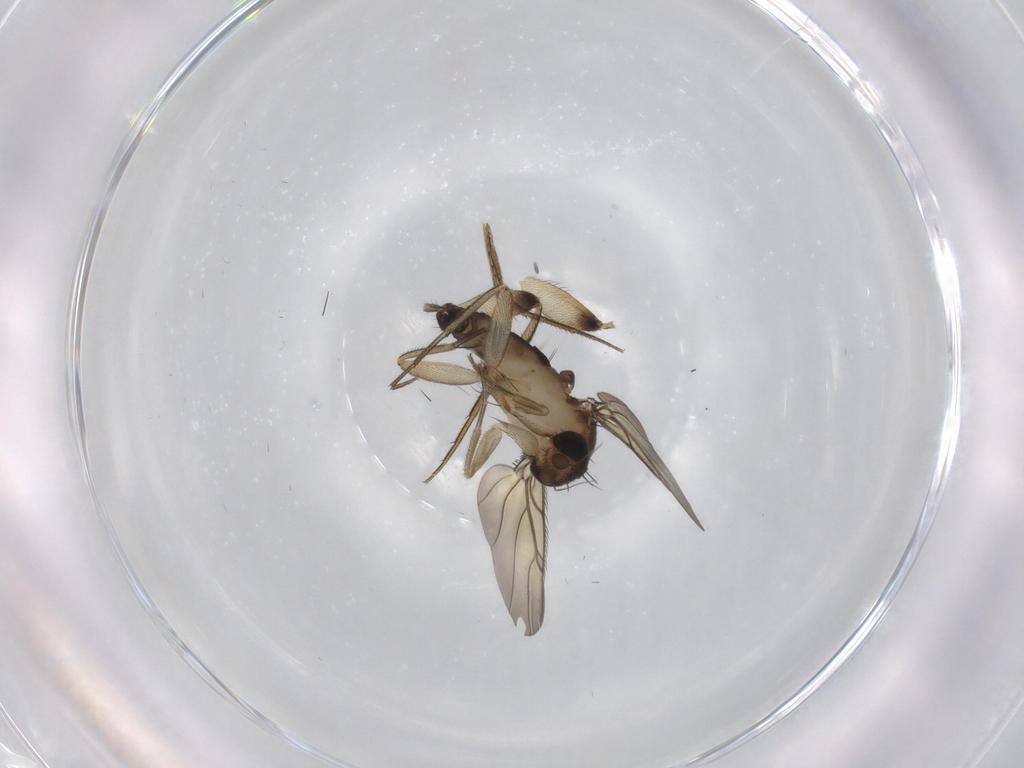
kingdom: Animalia
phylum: Arthropoda
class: Insecta
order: Diptera
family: Phoridae
